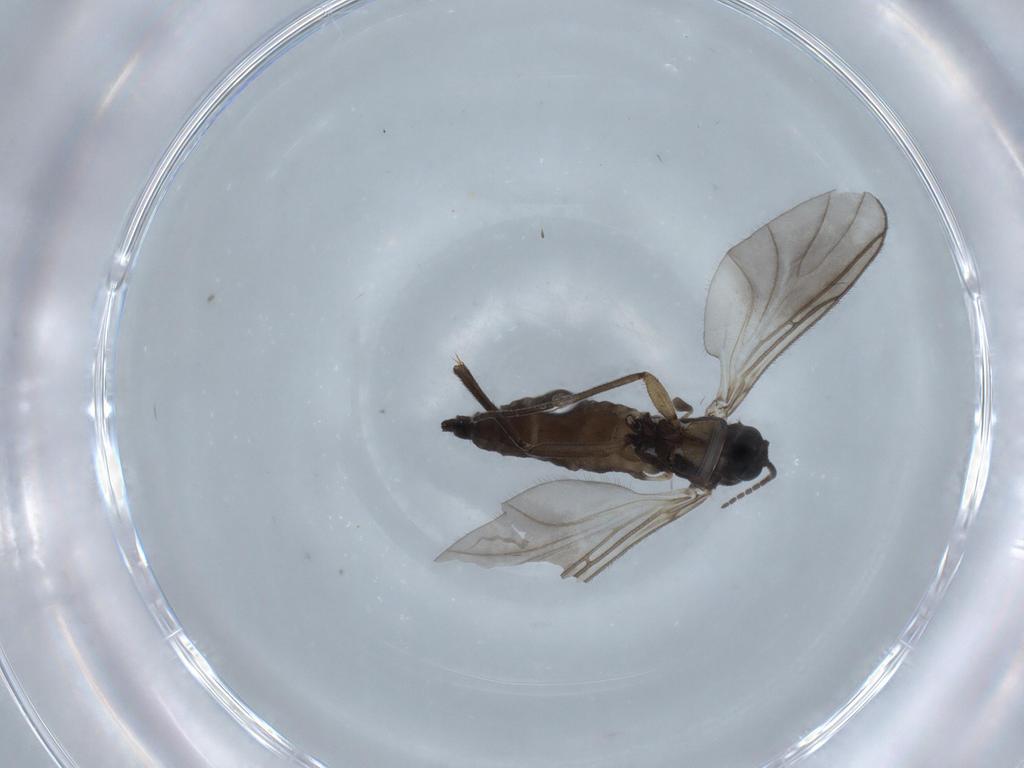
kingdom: Animalia
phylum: Arthropoda
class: Insecta
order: Diptera
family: Sciaridae
